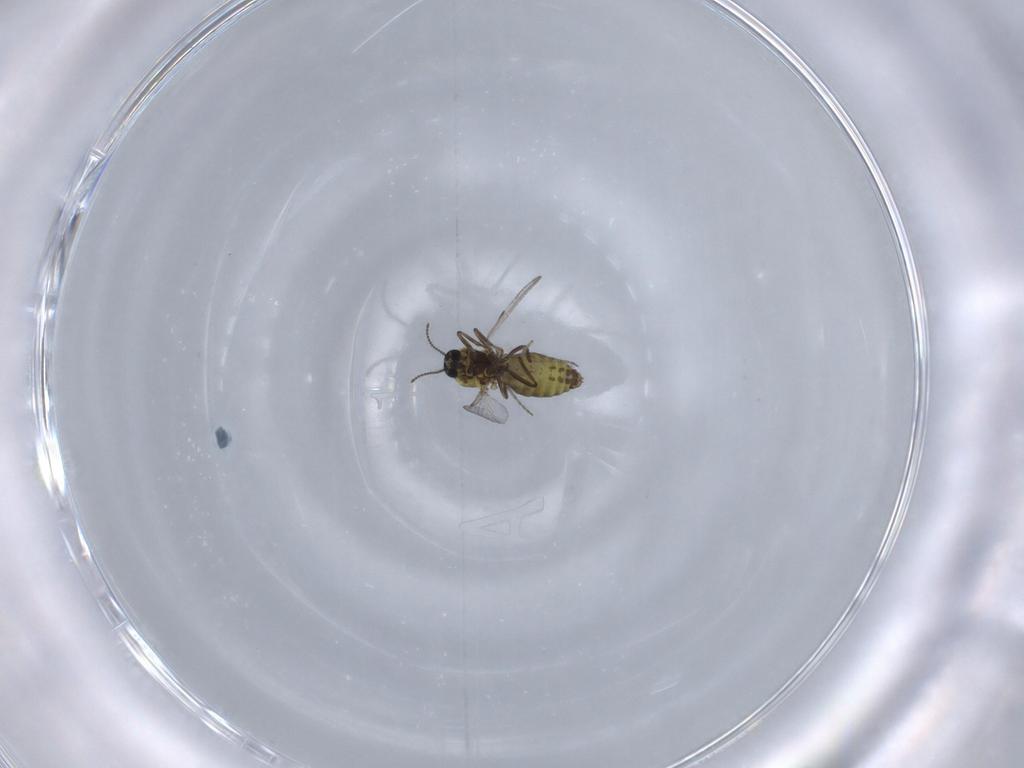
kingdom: Animalia
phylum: Arthropoda
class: Insecta
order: Diptera
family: Ceratopogonidae
